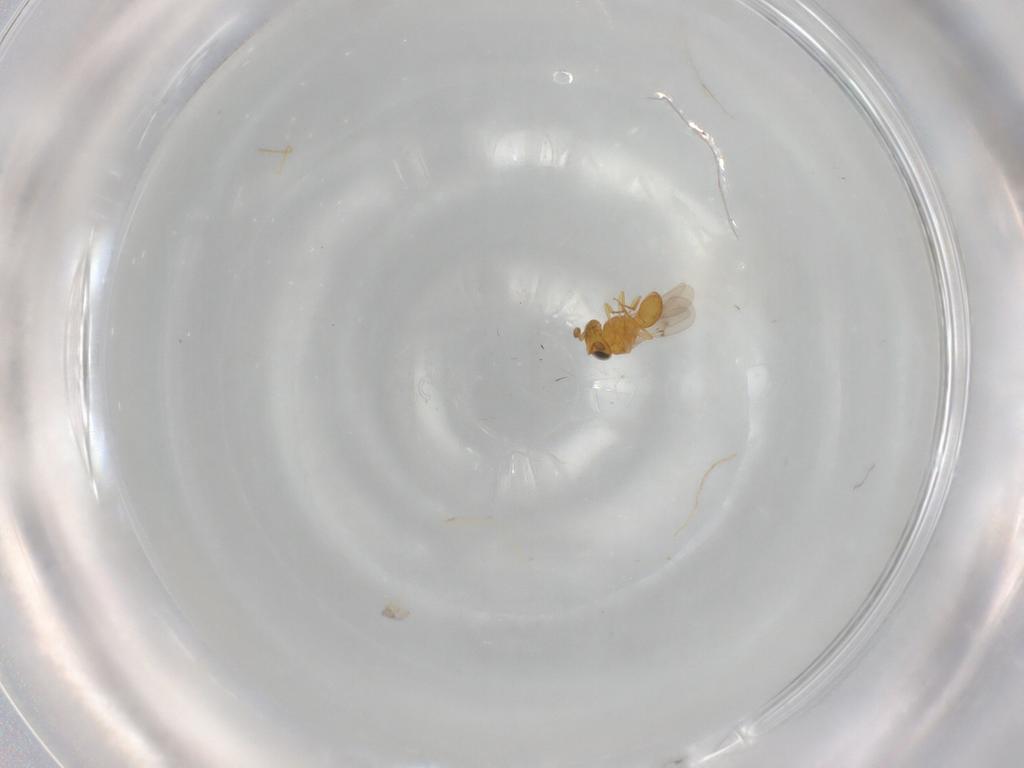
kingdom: Animalia
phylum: Arthropoda
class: Insecta
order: Hymenoptera
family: Scelionidae
